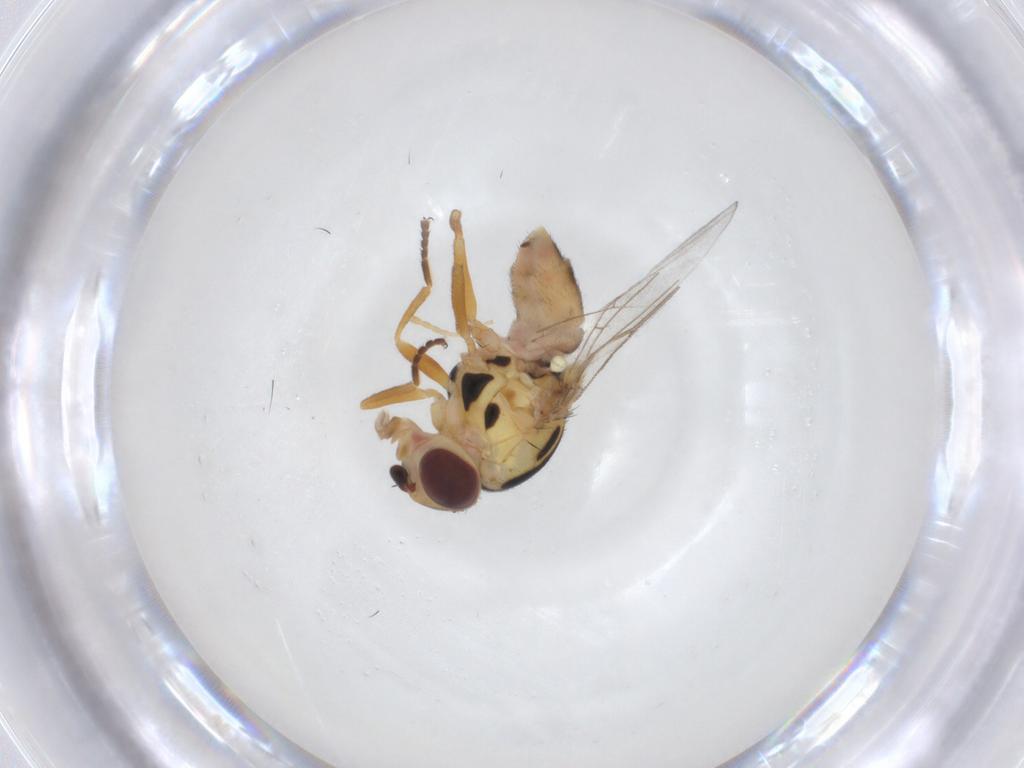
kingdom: Animalia
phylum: Arthropoda
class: Insecta
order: Diptera
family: Chloropidae
